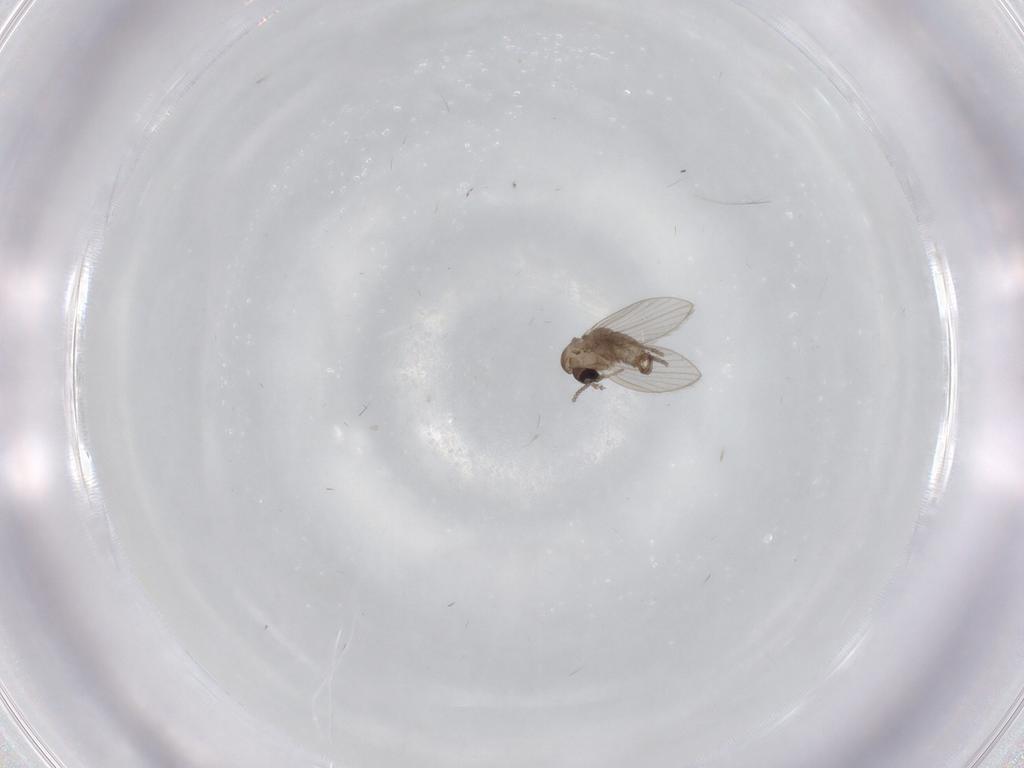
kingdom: Animalia
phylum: Arthropoda
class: Insecta
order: Diptera
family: Psychodidae
